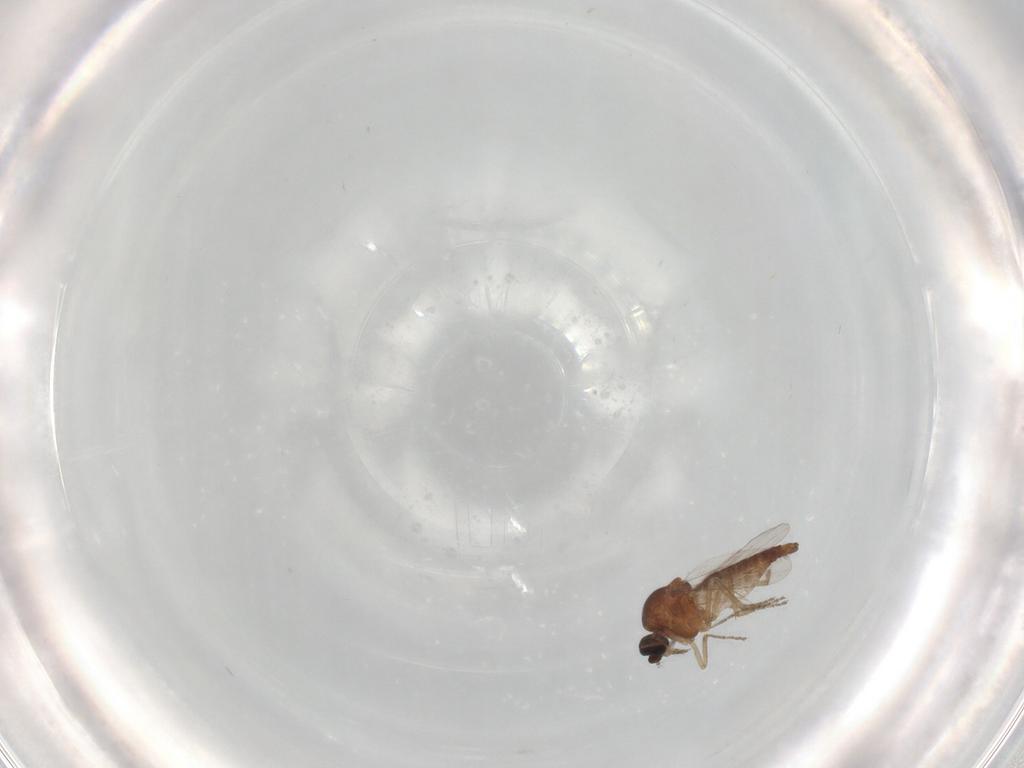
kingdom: Animalia
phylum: Arthropoda
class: Insecta
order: Diptera
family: Ceratopogonidae
